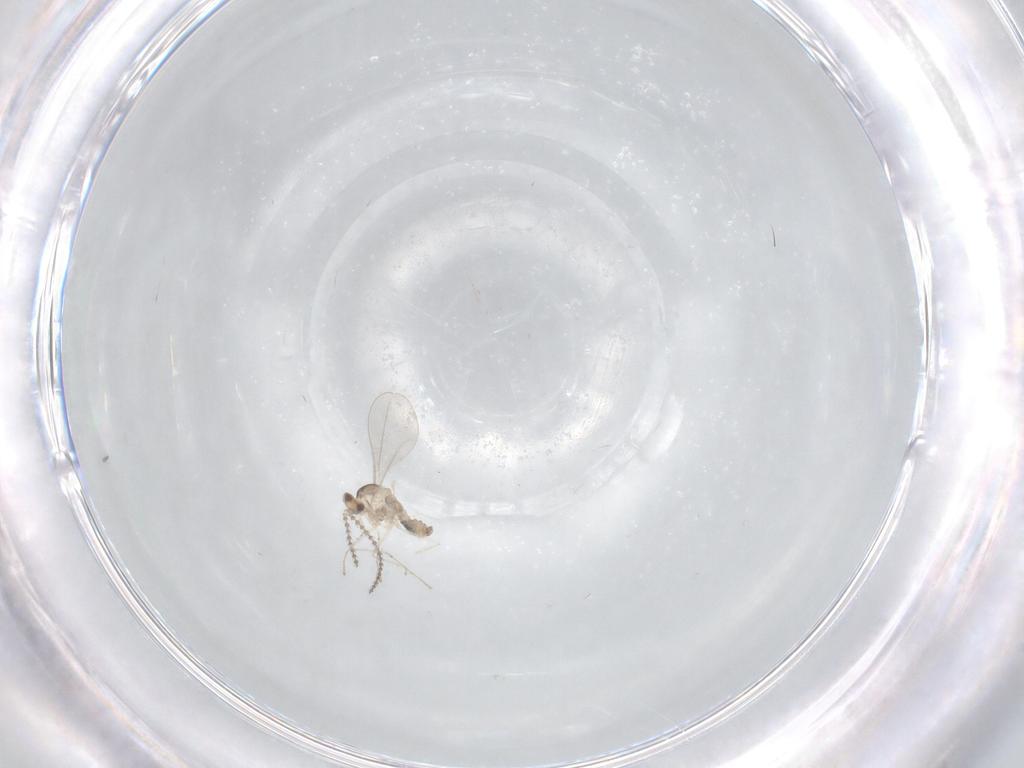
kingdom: Animalia
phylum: Arthropoda
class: Insecta
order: Diptera
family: Cecidomyiidae
